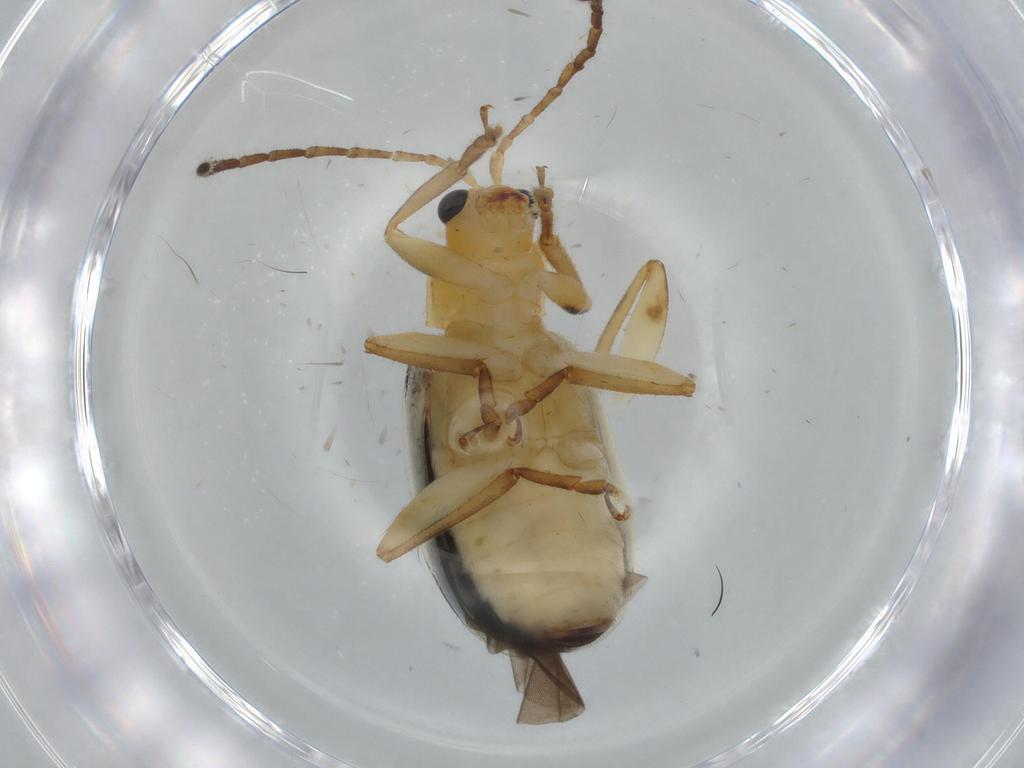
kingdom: Animalia
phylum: Arthropoda
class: Insecta
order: Coleoptera
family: Chrysomelidae
